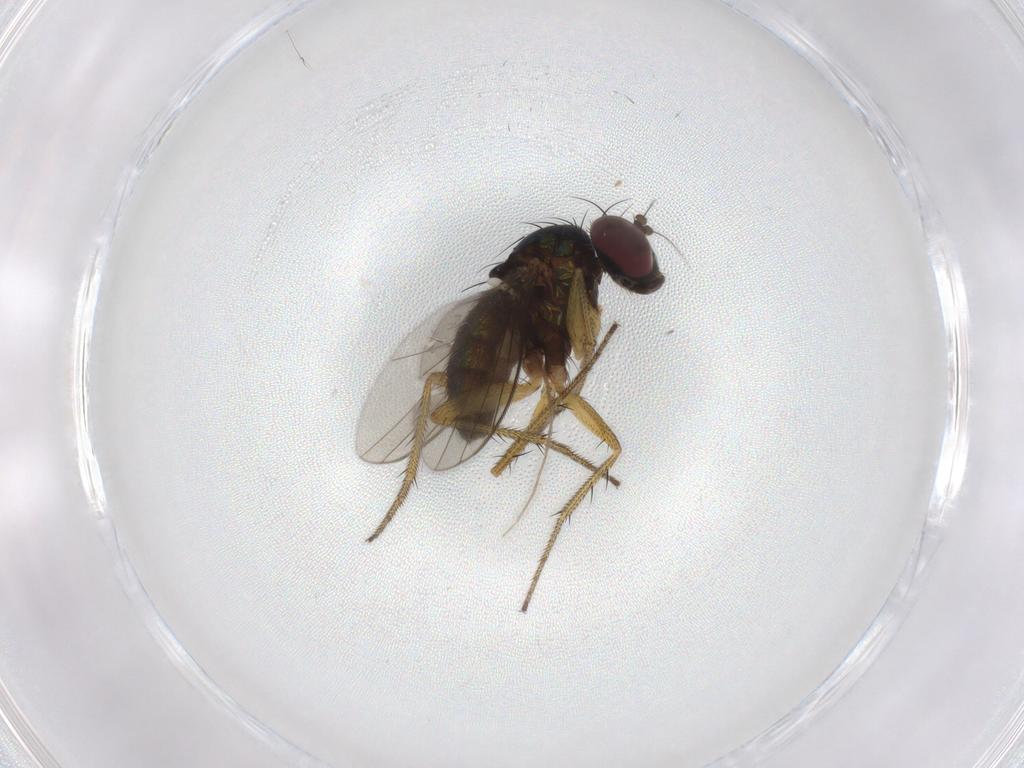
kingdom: Animalia
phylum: Arthropoda
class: Insecta
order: Diptera
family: Chironomidae
